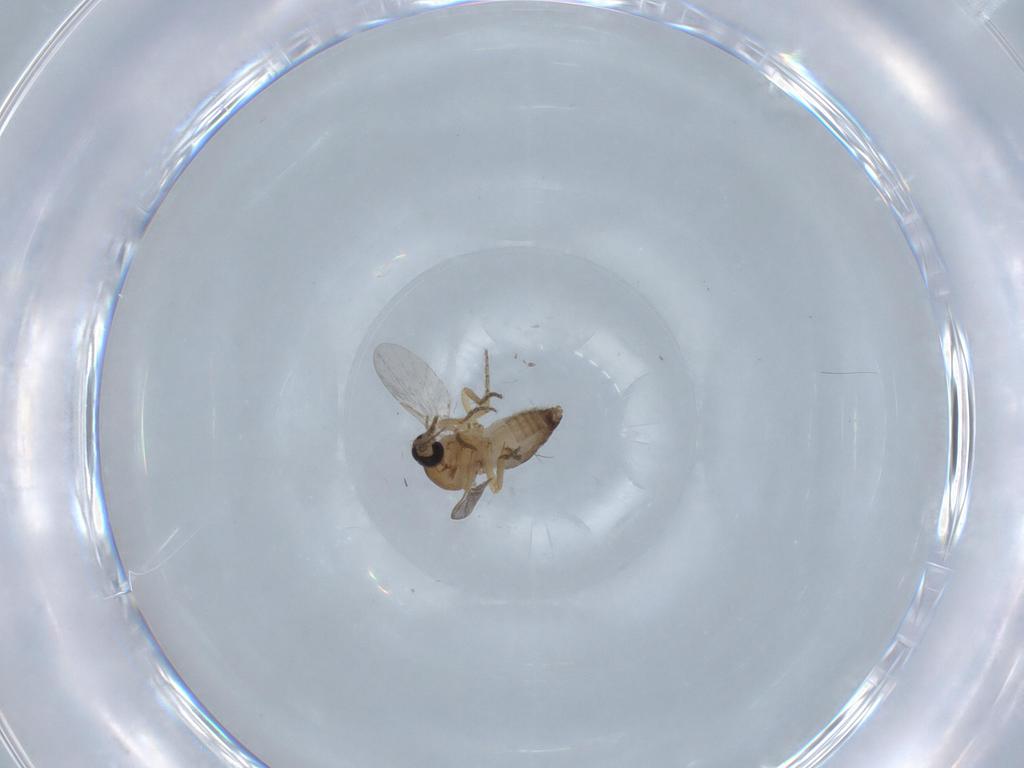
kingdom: Animalia
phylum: Arthropoda
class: Insecta
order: Diptera
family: Ceratopogonidae
